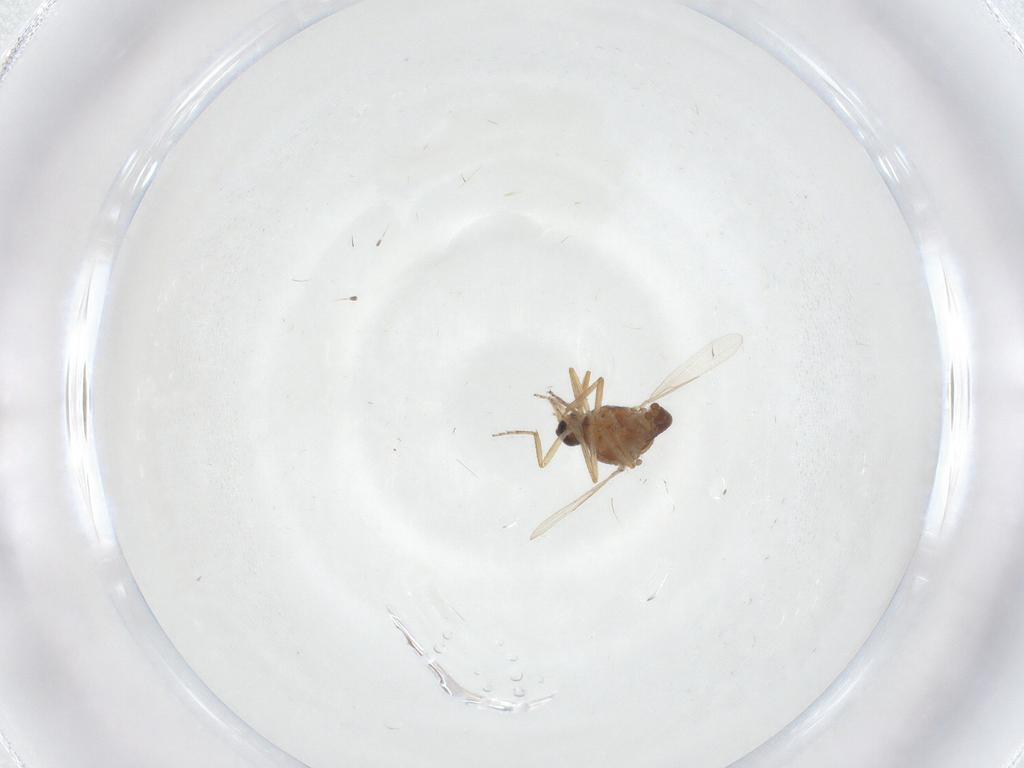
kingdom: Animalia
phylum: Arthropoda
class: Insecta
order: Diptera
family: Ceratopogonidae
